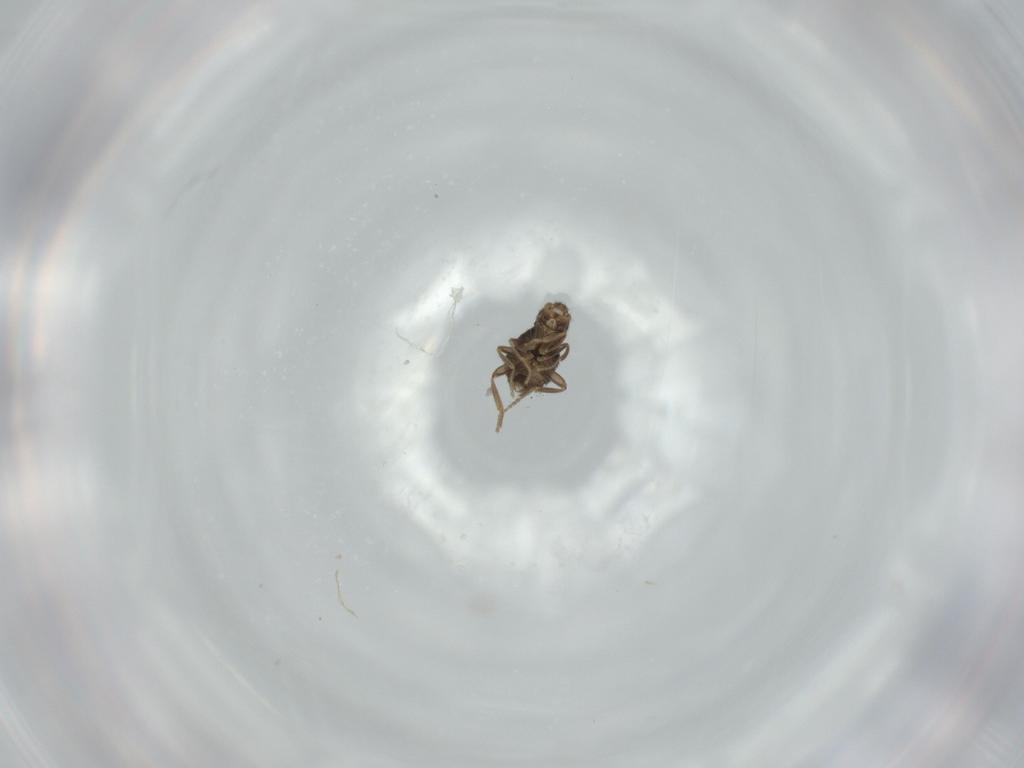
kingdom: Animalia
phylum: Arthropoda
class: Insecta
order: Diptera
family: Phoridae
